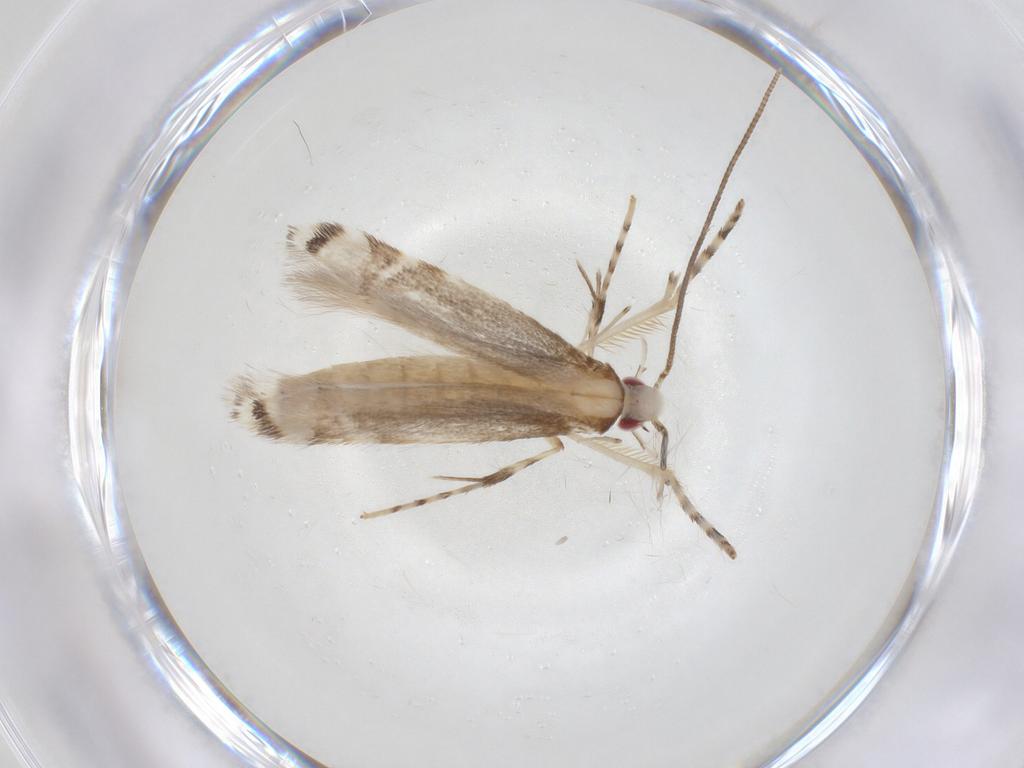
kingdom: Animalia
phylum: Arthropoda
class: Insecta
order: Lepidoptera
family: Crambidae
